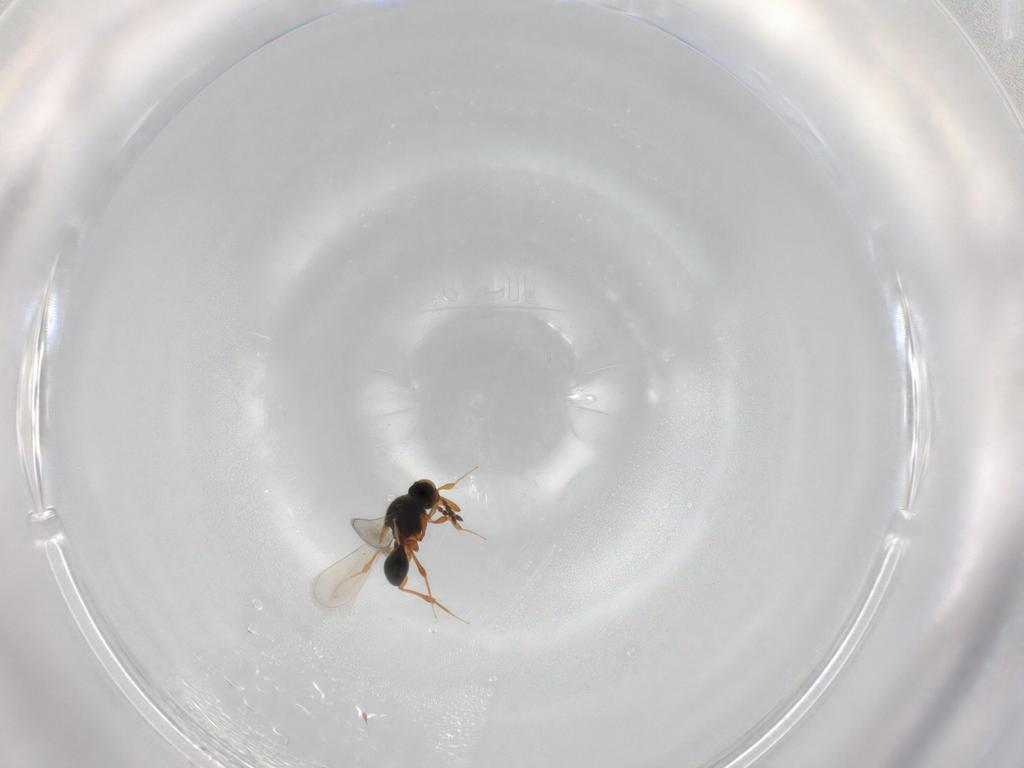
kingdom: Animalia
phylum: Arthropoda
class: Insecta
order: Hymenoptera
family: Platygastridae
